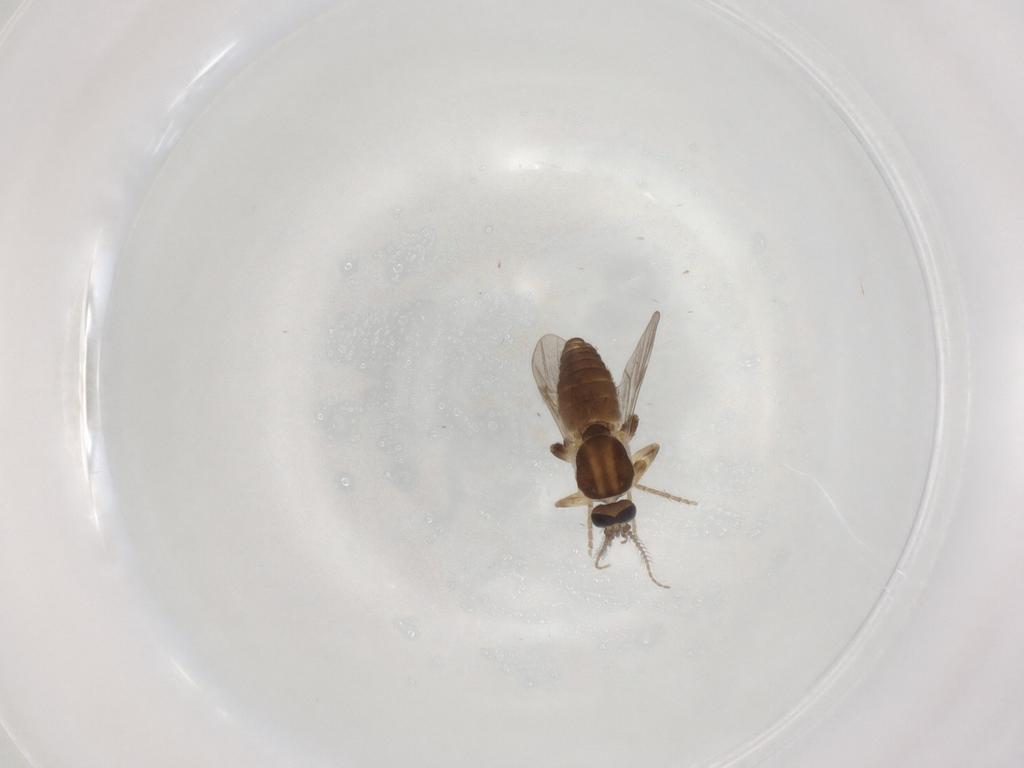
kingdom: Animalia
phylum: Arthropoda
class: Insecta
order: Diptera
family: Ceratopogonidae
